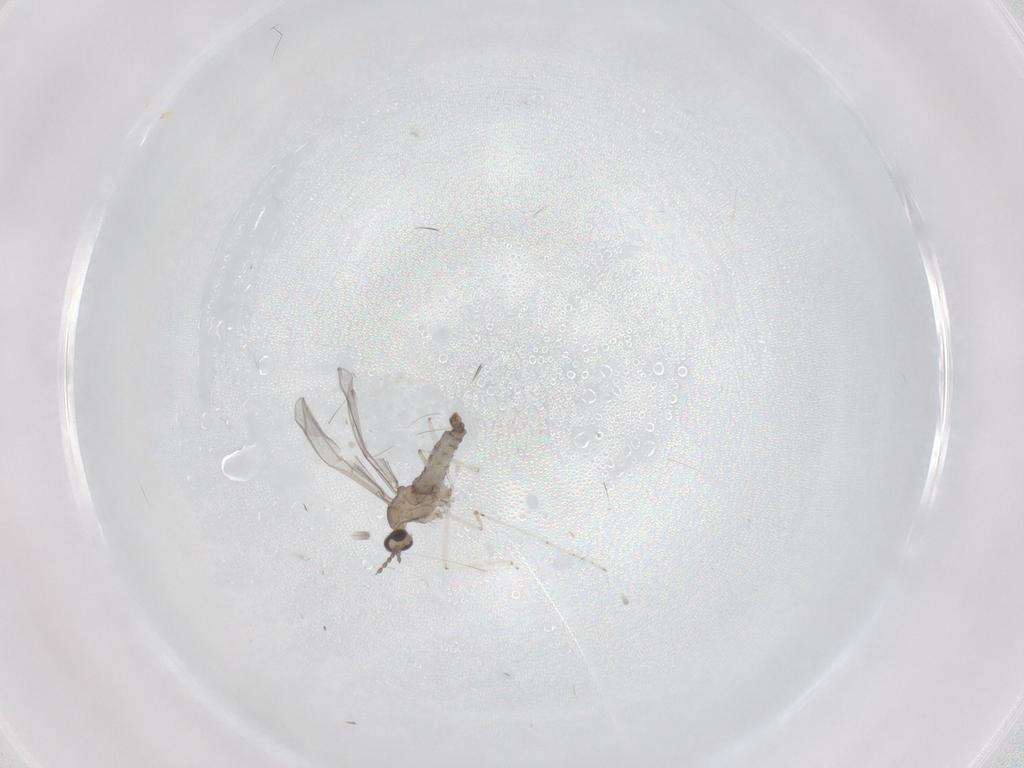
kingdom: Animalia
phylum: Arthropoda
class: Insecta
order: Diptera
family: Cecidomyiidae
